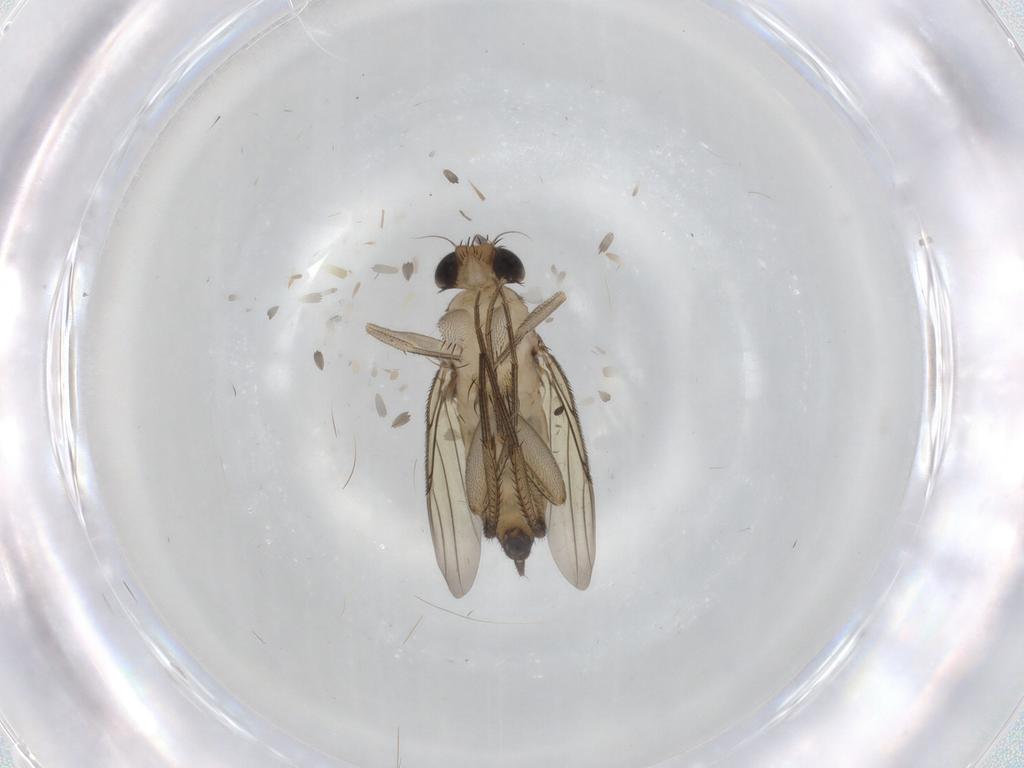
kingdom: Animalia
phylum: Arthropoda
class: Insecta
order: Diptera
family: Phoridae
